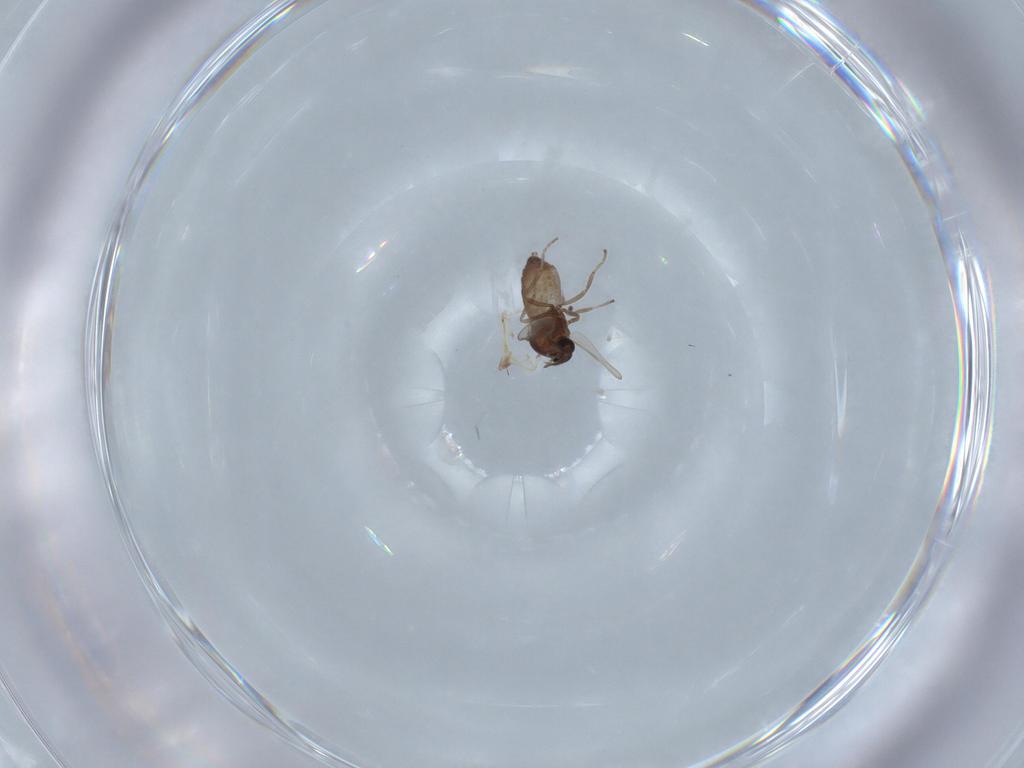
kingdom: Animalia
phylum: Arthropoda
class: Insecta
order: Diptera
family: Ceratopogonidae
